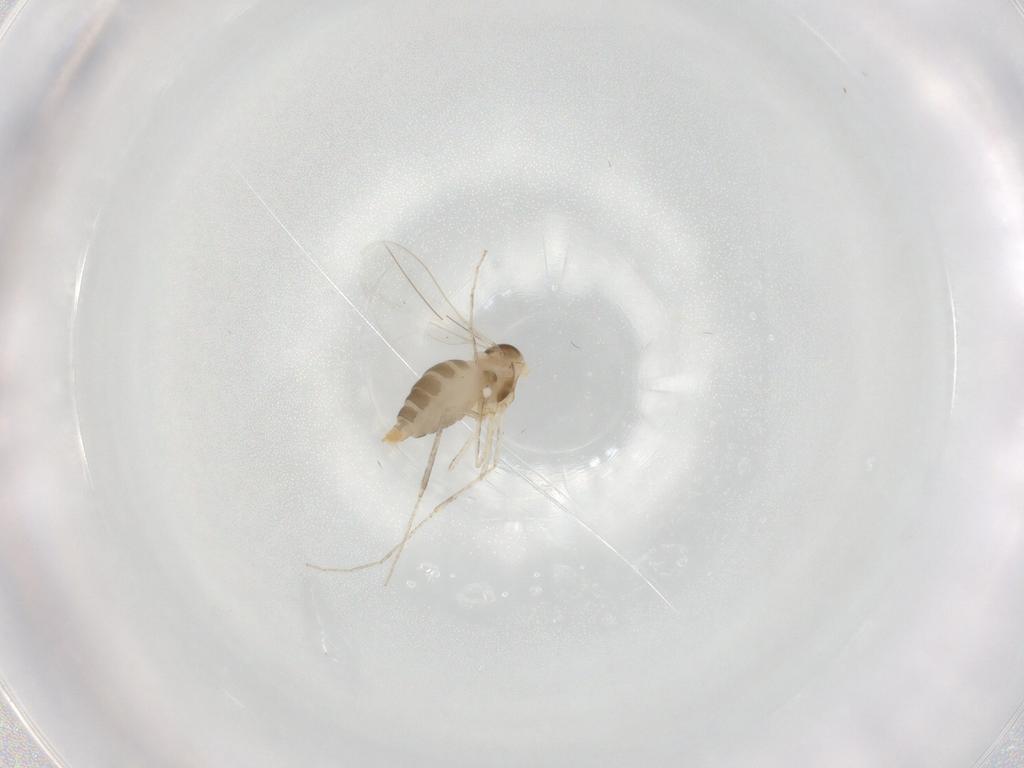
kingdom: Animalia
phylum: Arthropoda
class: Insecta
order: Diptera
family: Cecidomyiidae
